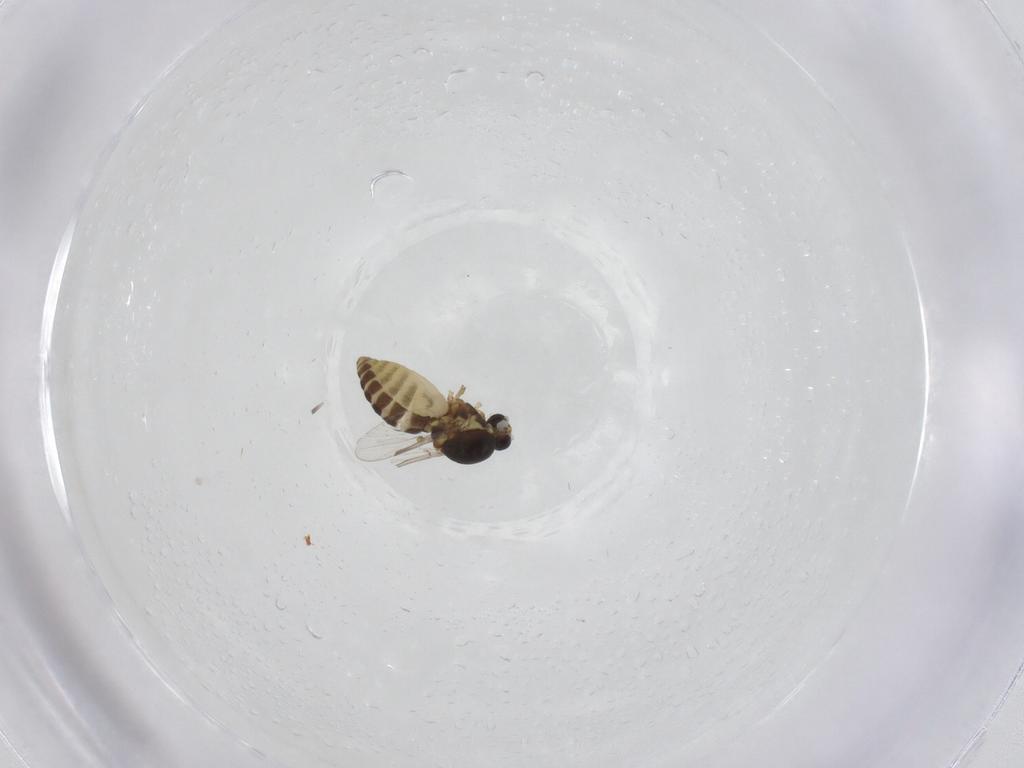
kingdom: Animalia
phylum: Arthropoda
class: Insecta
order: Diptera
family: Ceratopogonidae
